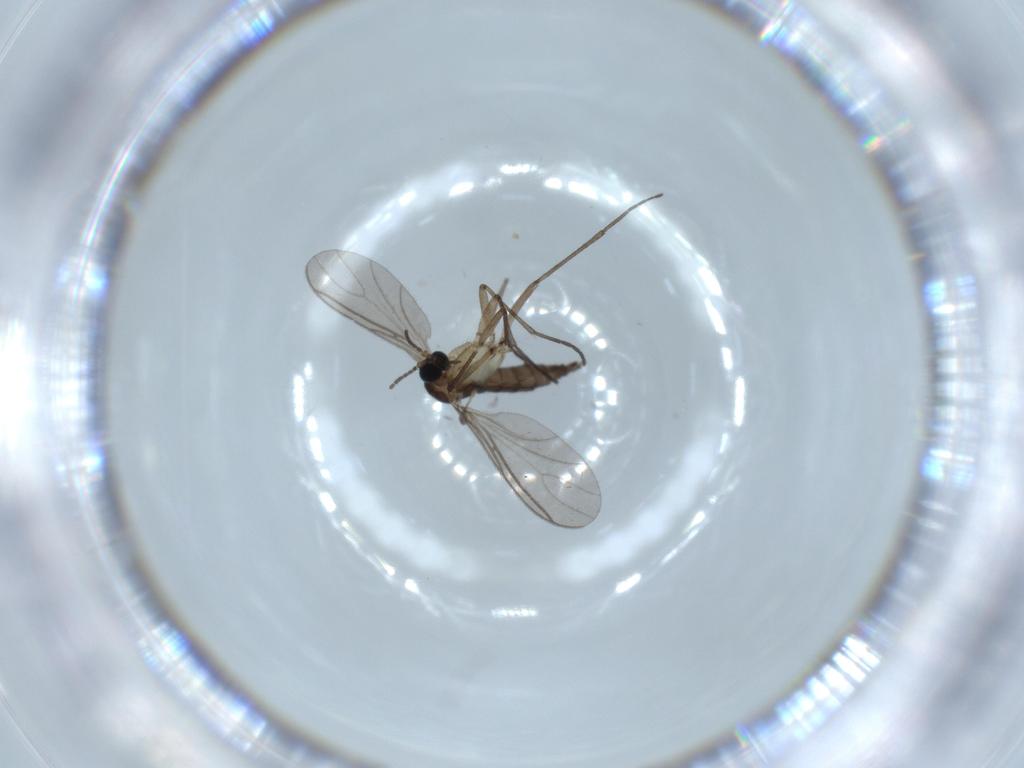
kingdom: Animalia
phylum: Arthropoda
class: Insecta
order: Diptera
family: Sciaridae
